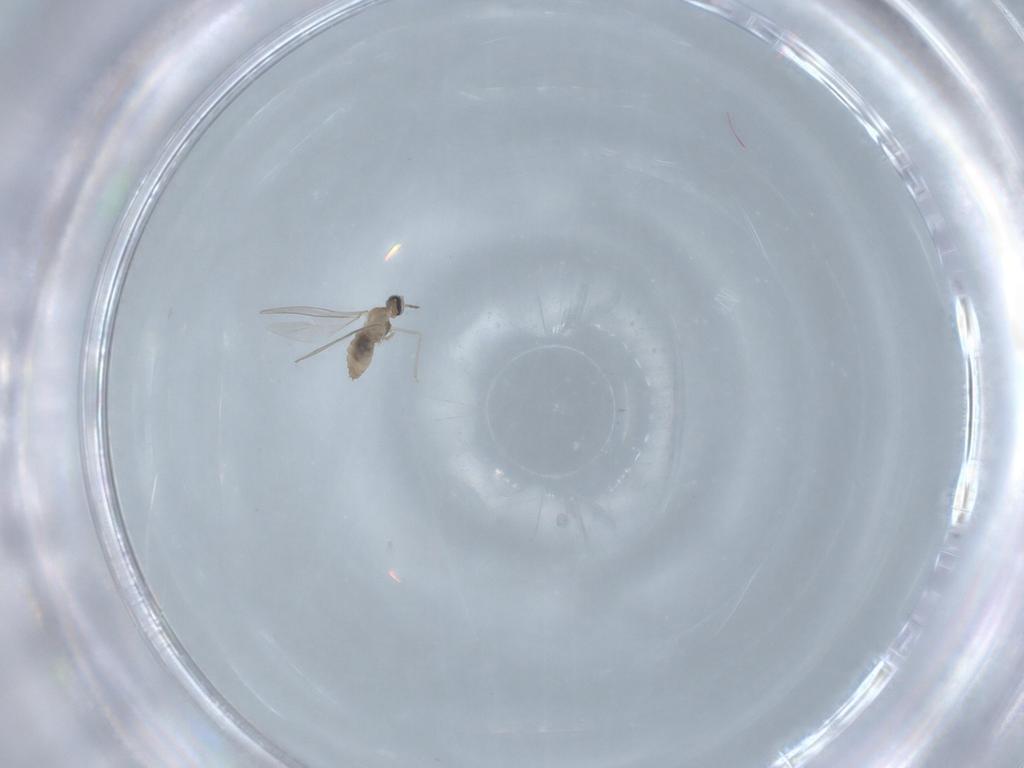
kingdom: Animalia
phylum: Arthropoda
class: Insecta
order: Diptera
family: Cecidomyiidae
